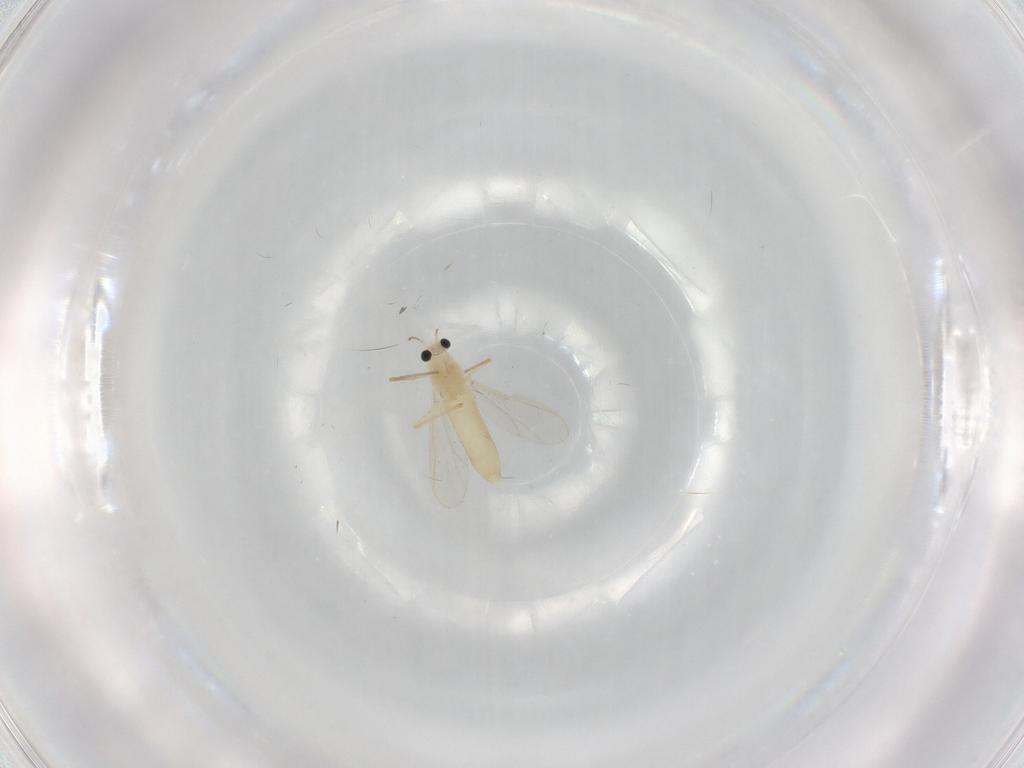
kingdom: Animalia
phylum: Arthropoda
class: Insecta
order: Diptera
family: Chironomidae
